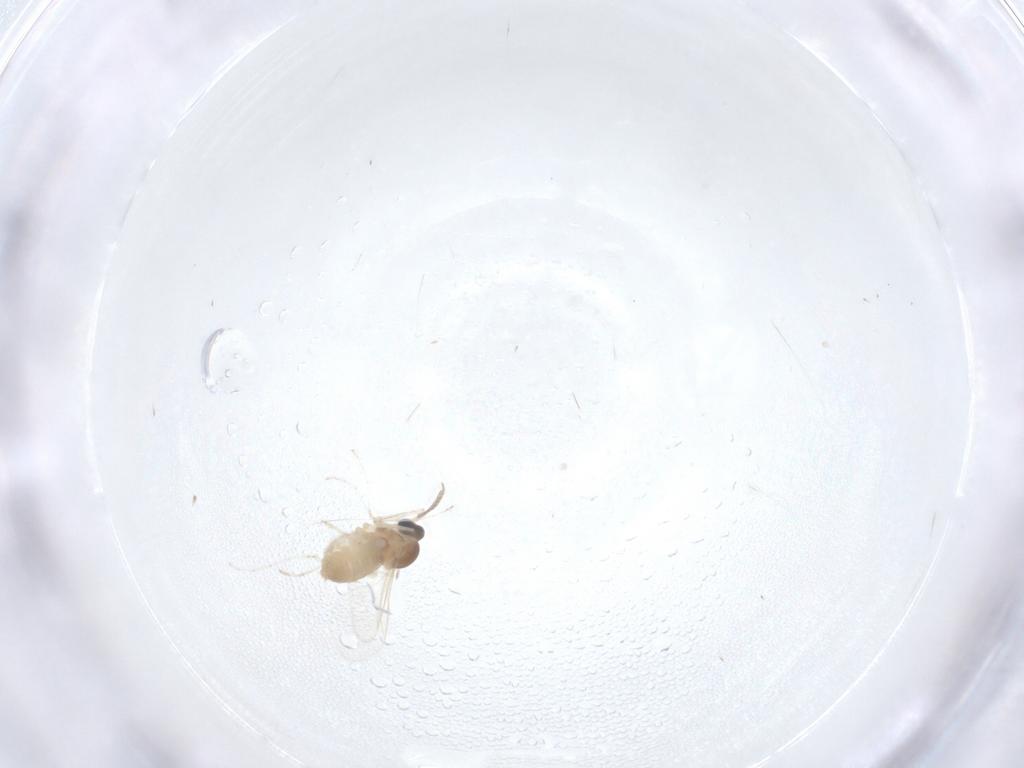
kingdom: Animalia
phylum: Arthropoda
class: Insecta
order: Diptera
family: Cecidomyiidae
